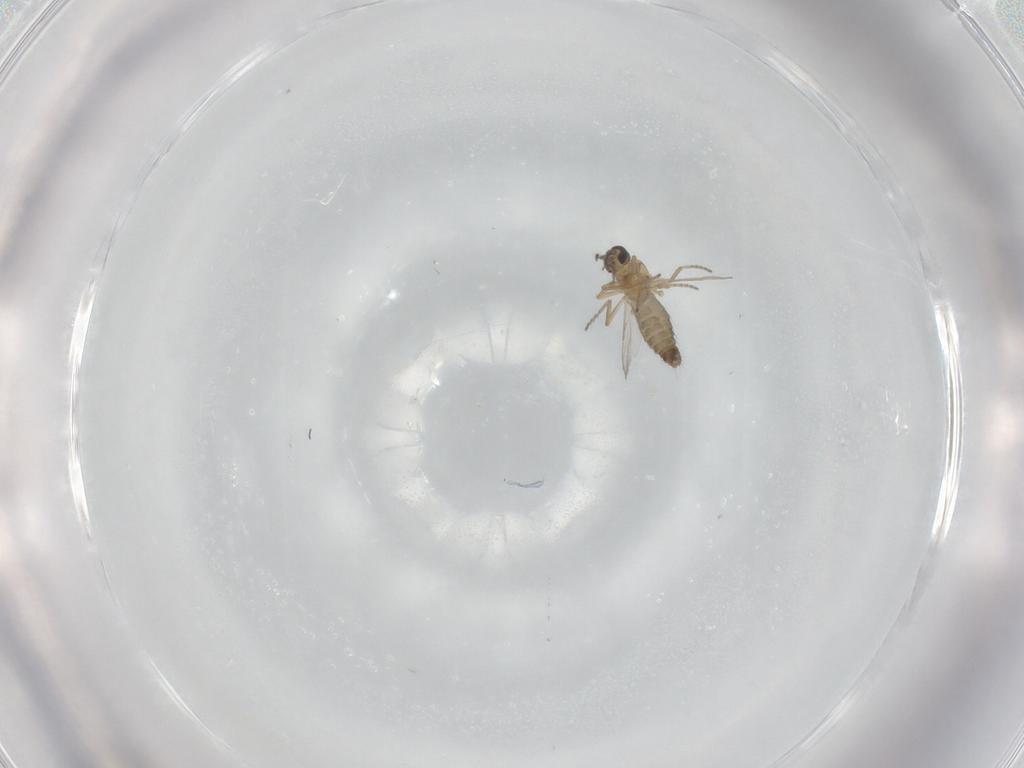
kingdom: Animalia
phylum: Arthropoda
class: Insecta
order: Diptera
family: Ceratopogonidae
